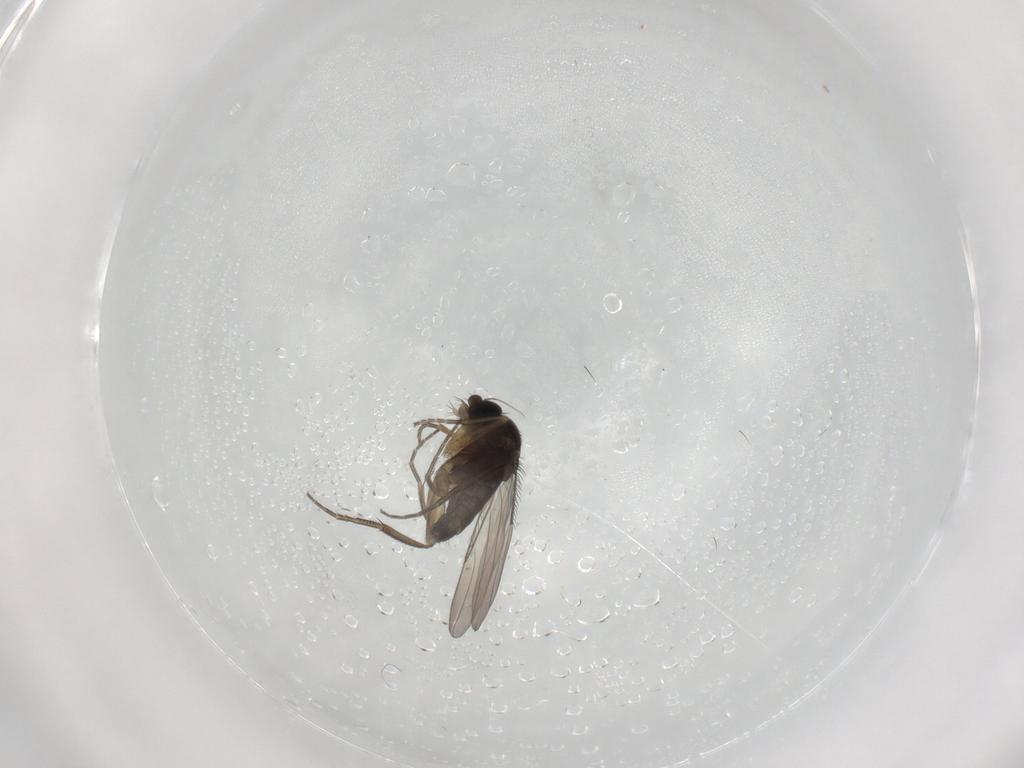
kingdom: Animalia
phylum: Arthropoda
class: Insecta
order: Diptera
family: Phoridae
